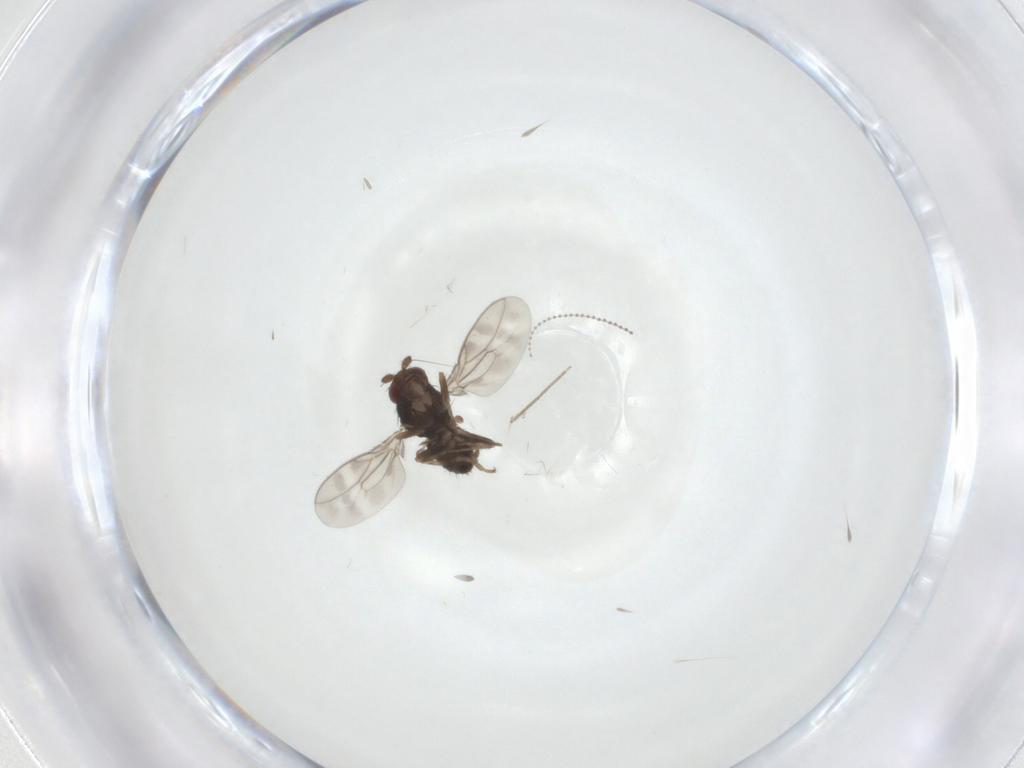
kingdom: Animalia
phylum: Arthropoda
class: Insecta
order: Diptera
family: Sphaeroceridae
